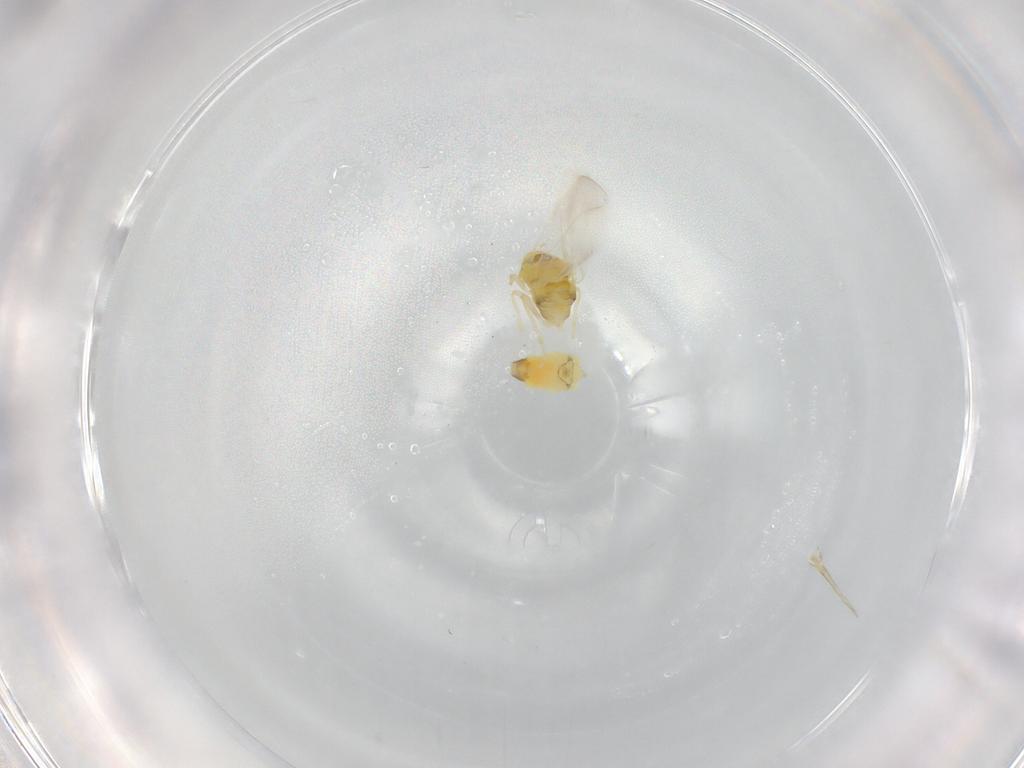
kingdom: Animalia
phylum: Arthropoda
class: Insecta
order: Hemiptera
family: Aleyrodidae
